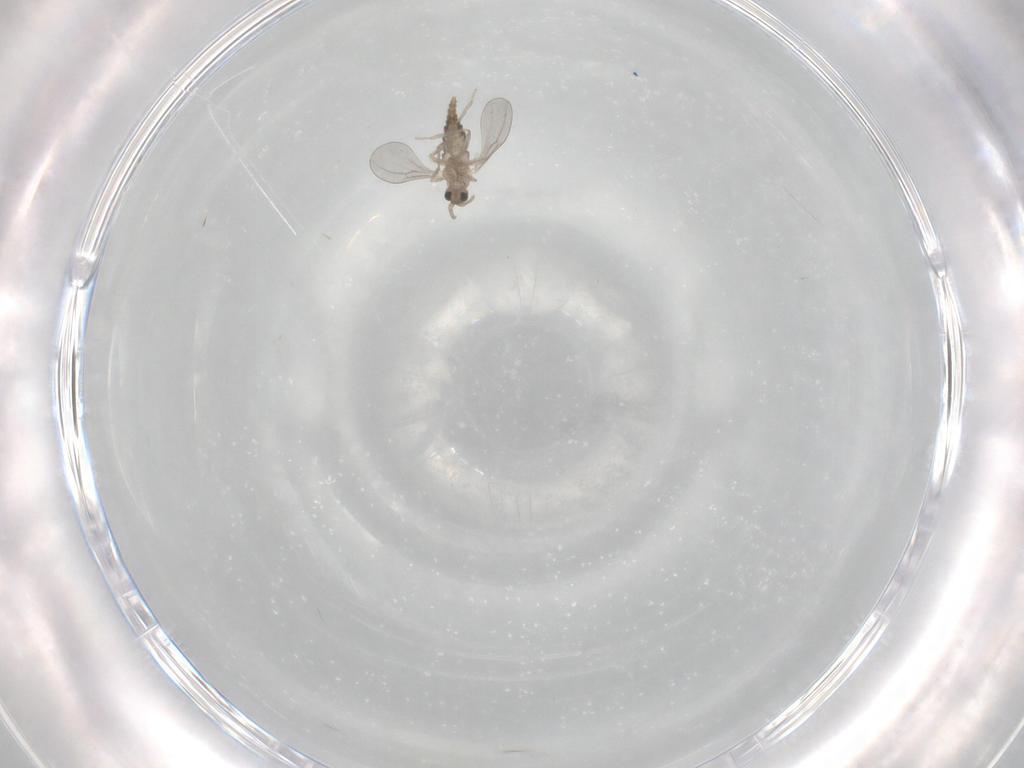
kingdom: Animalia
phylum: Arthropoda
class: Insecta
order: Diptera
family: Cecidomyiidae
